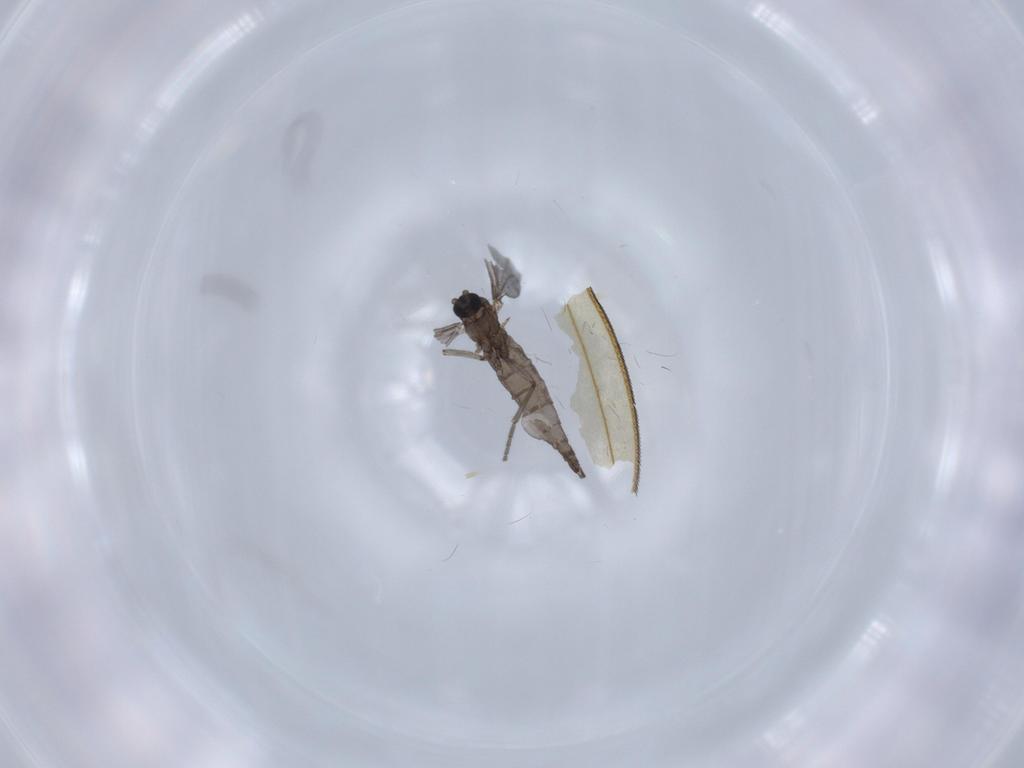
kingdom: Animalia
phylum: Arthropoda
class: Insecta
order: Diptera
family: Sciaridae
